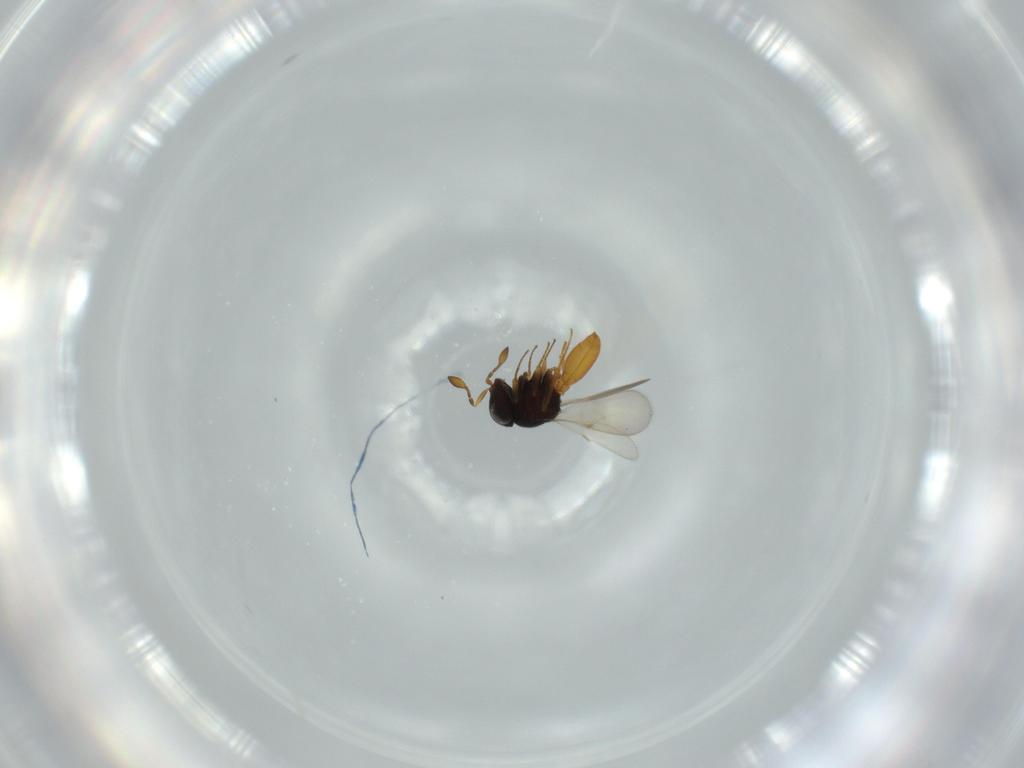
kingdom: Animalia
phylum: Arthropoda
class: Insecta
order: Hymenoptera
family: Scelionidae
